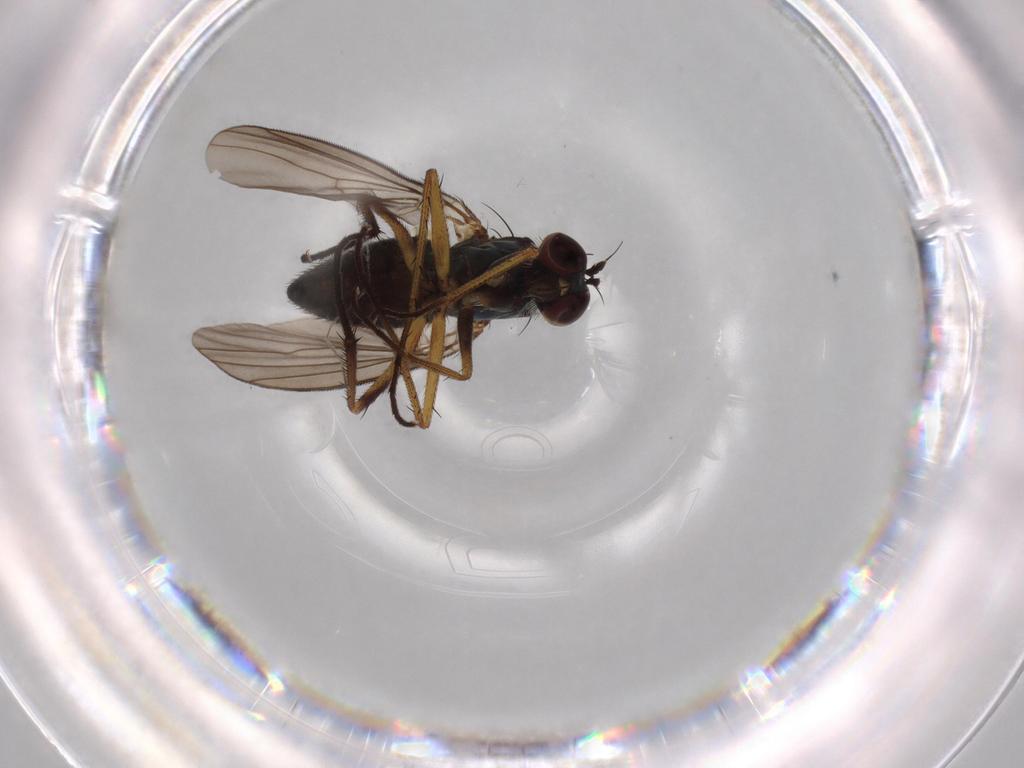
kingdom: Animalia
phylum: Arthropoda
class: Insecta
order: Diptera
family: Dolichopodidae
